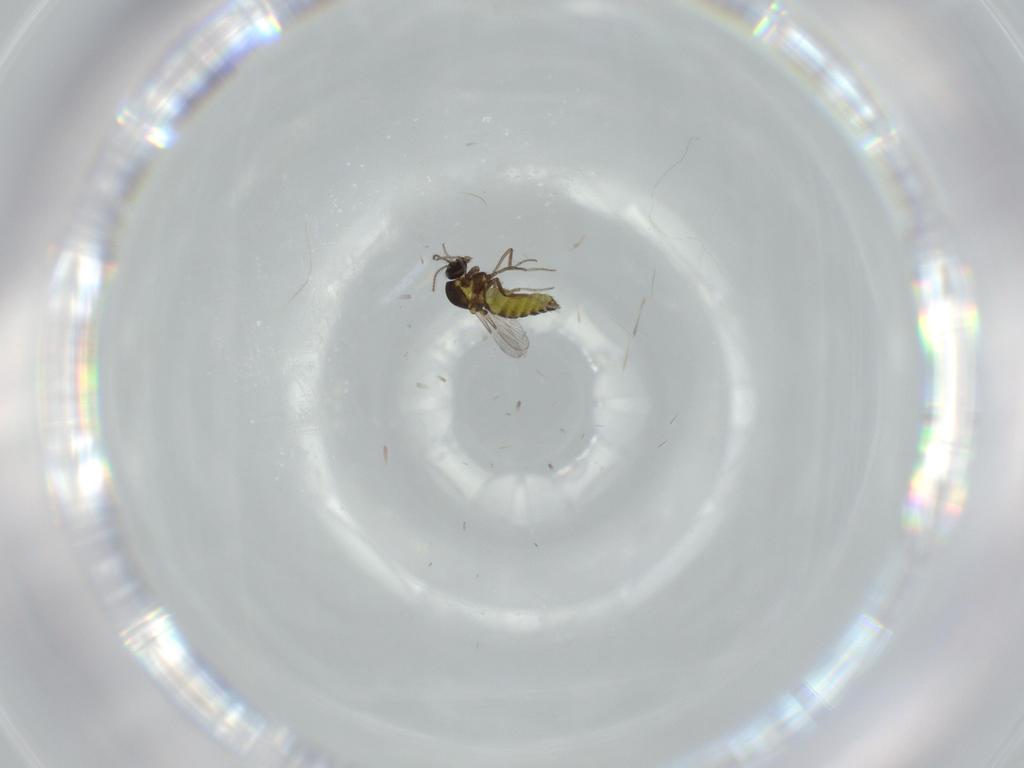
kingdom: Animalia
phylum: Arthropoda
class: Insecta
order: Diptera
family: Ceratopogonidae
